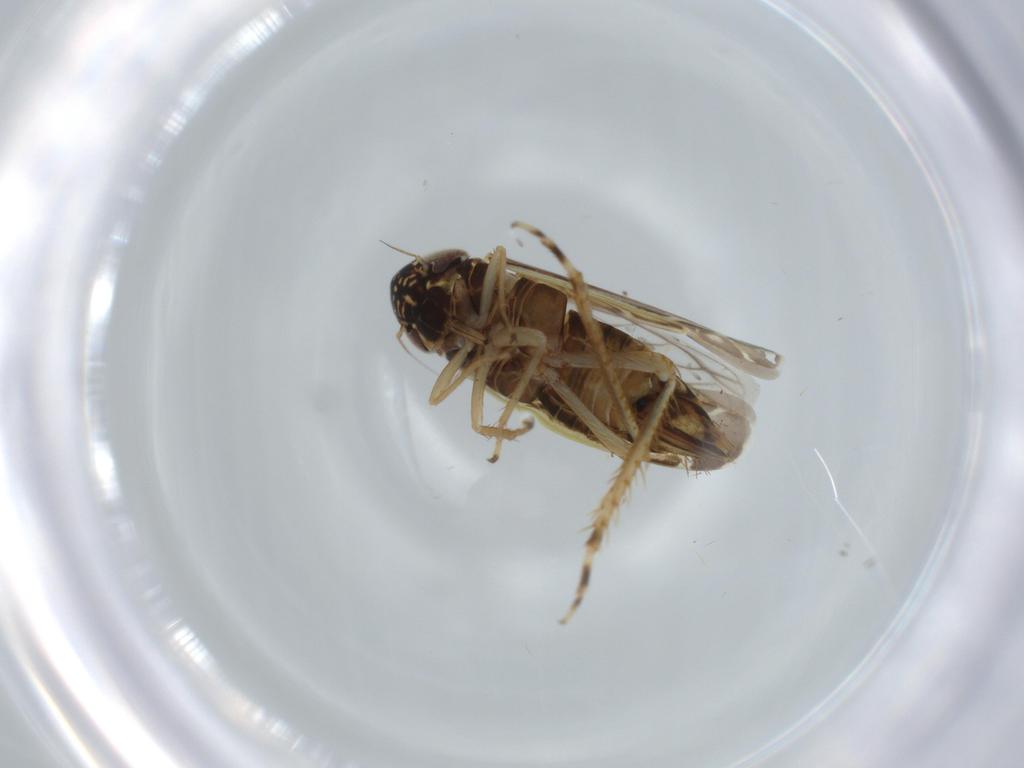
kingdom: Animalia
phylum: Arthropoda
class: Insecta
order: Hemiptera
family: Cicadellidae
